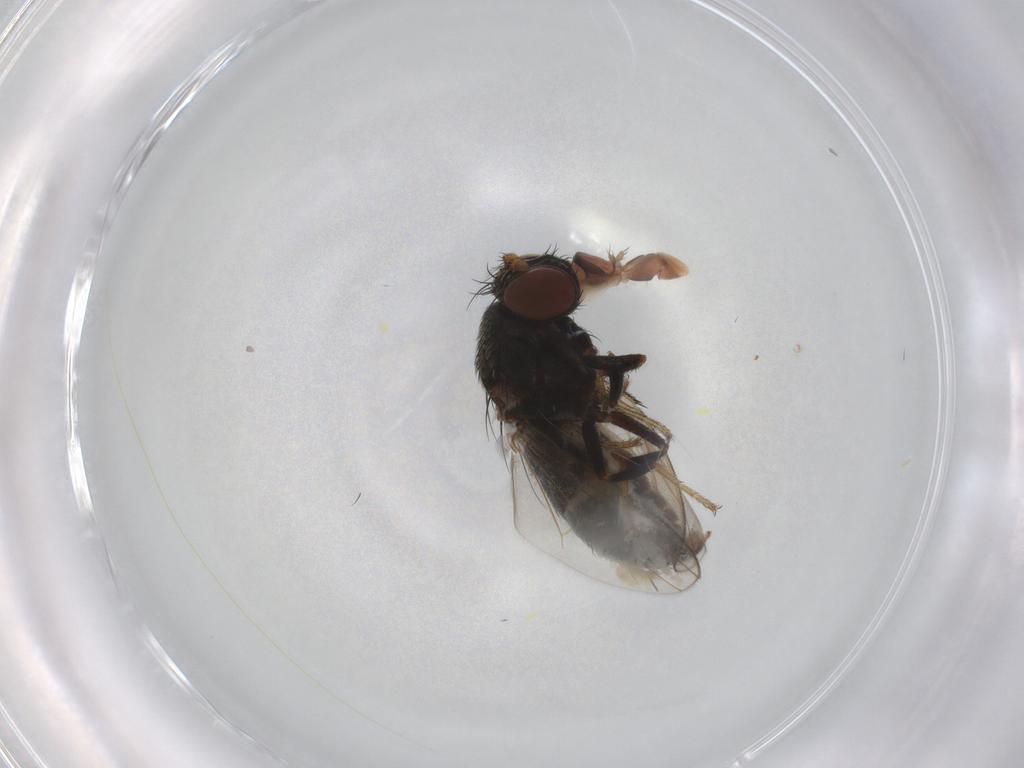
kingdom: Animalia
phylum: Arthropoda
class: Insecta
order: Diptera
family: Ephydridae
